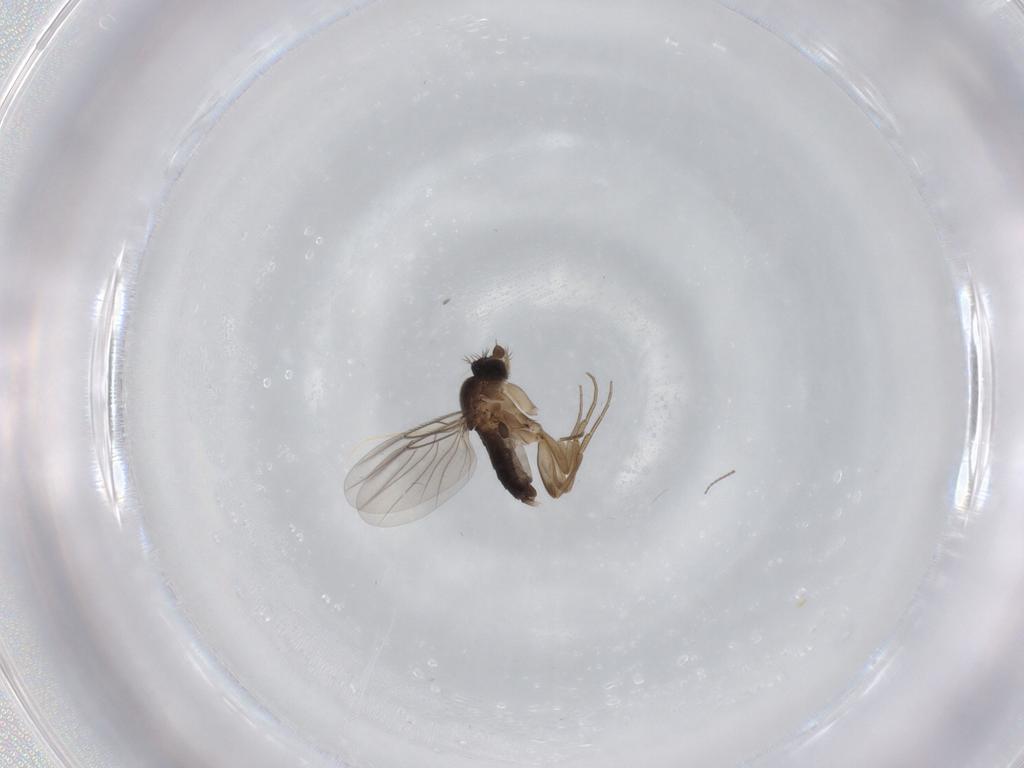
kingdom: Animalia
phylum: Arthropoda
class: Insecta
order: Diptera
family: Phoridae
